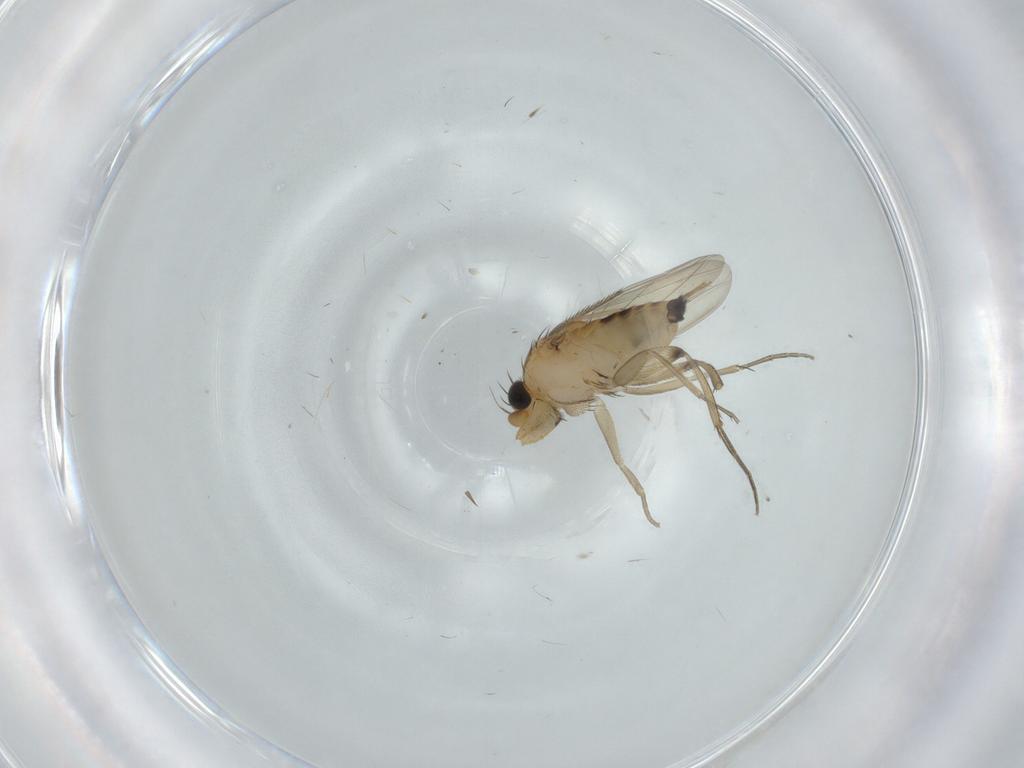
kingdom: Animalia
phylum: Arthropoda
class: Insecta
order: Diptera
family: Phoridae
